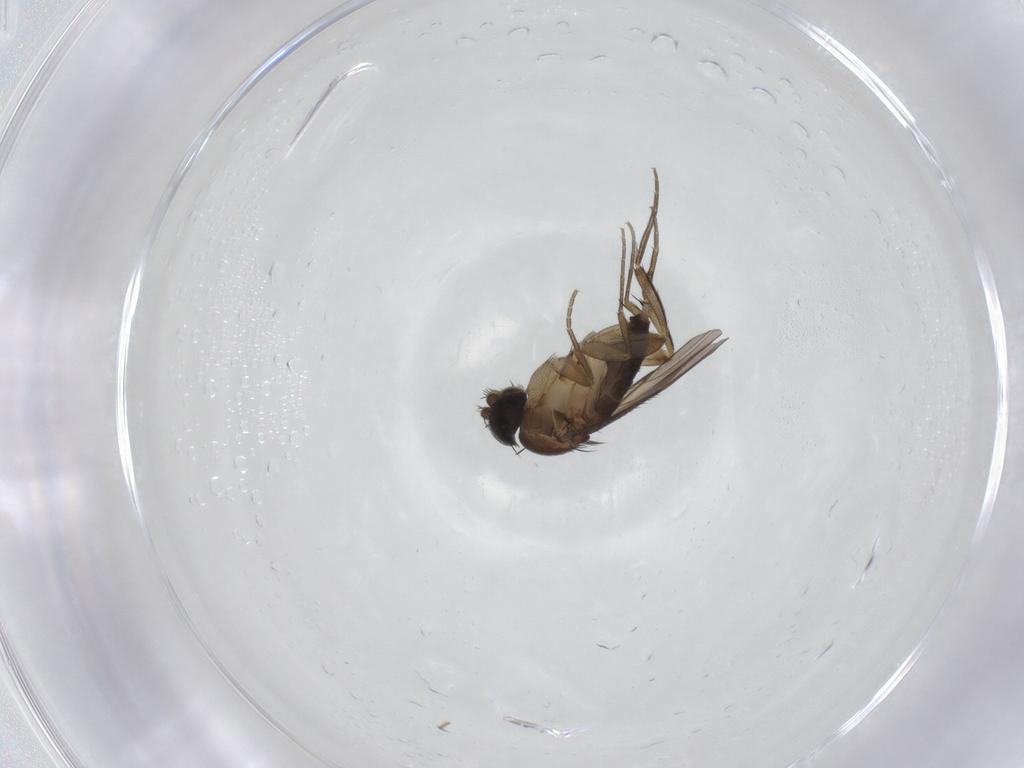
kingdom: Animalia
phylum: Arthropoda
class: Insecta
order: Diptera
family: Phoridae
